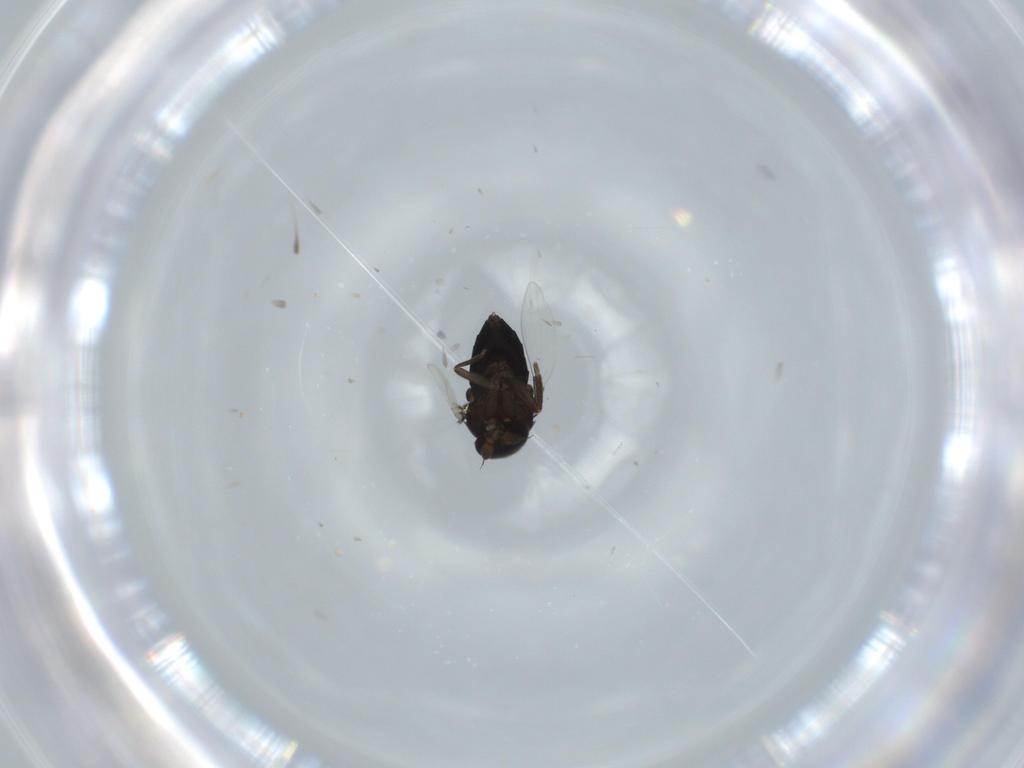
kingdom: Animalia
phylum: Arthropoda
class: Insecta
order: Diptera
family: Phoridae
